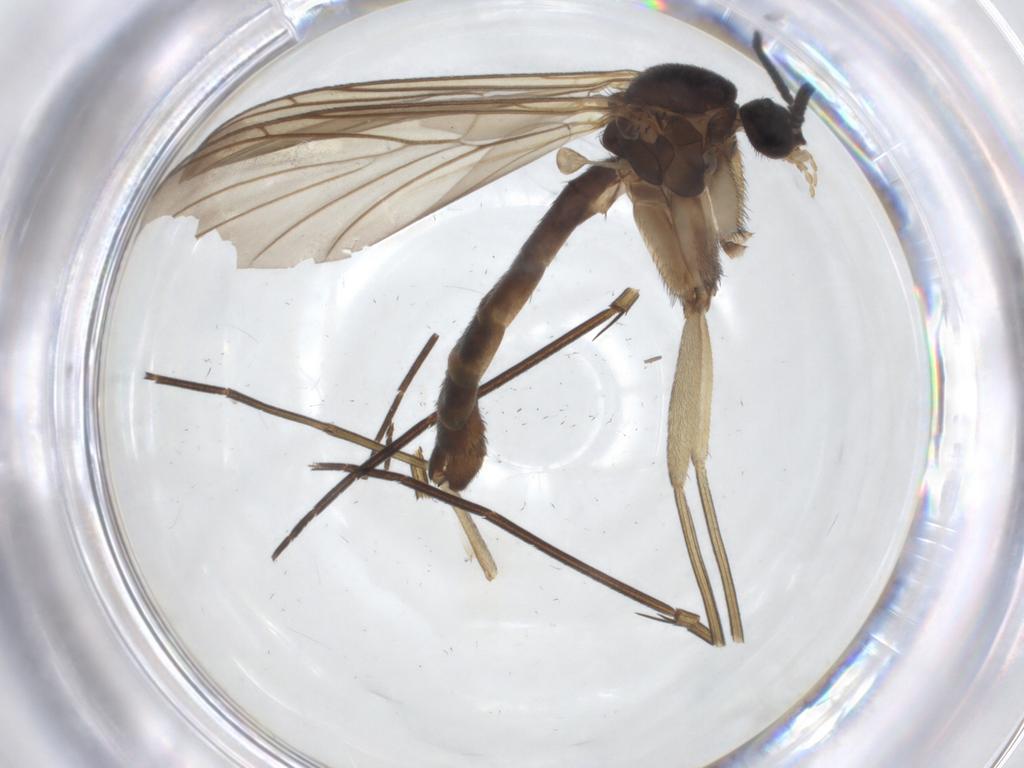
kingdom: Animalia
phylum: Arthropoda
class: Insecta
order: Diptera
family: Keroplatidae
